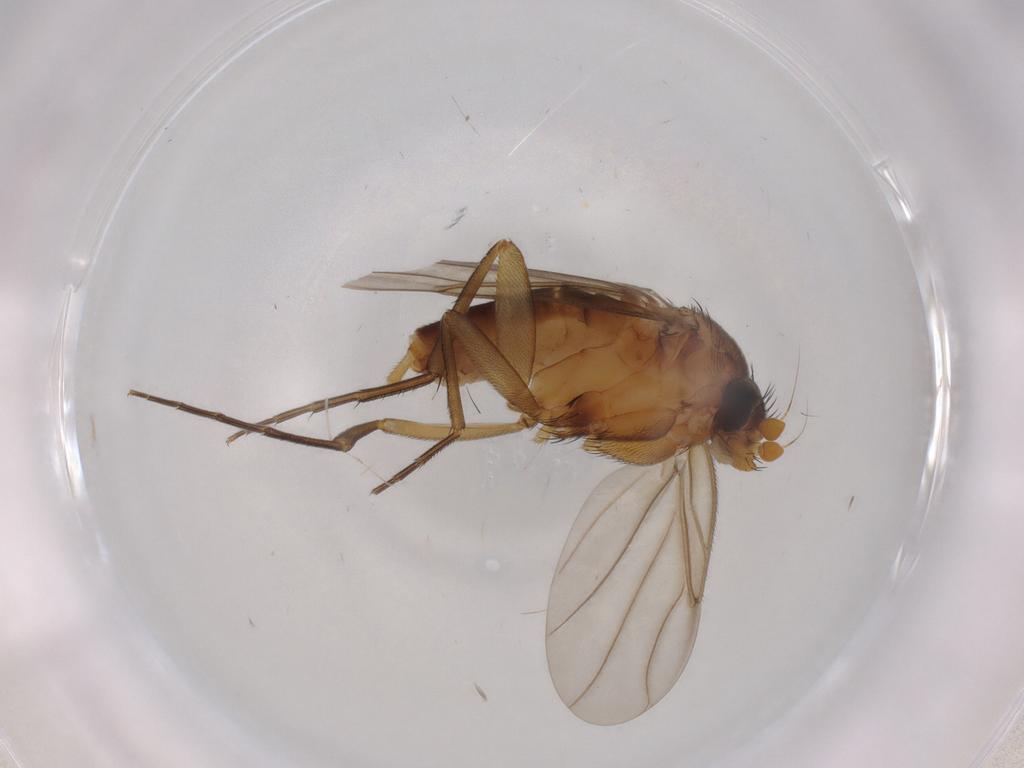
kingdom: Animalia
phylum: Arthropoda
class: Insecta
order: Diptera
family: Phoridae
